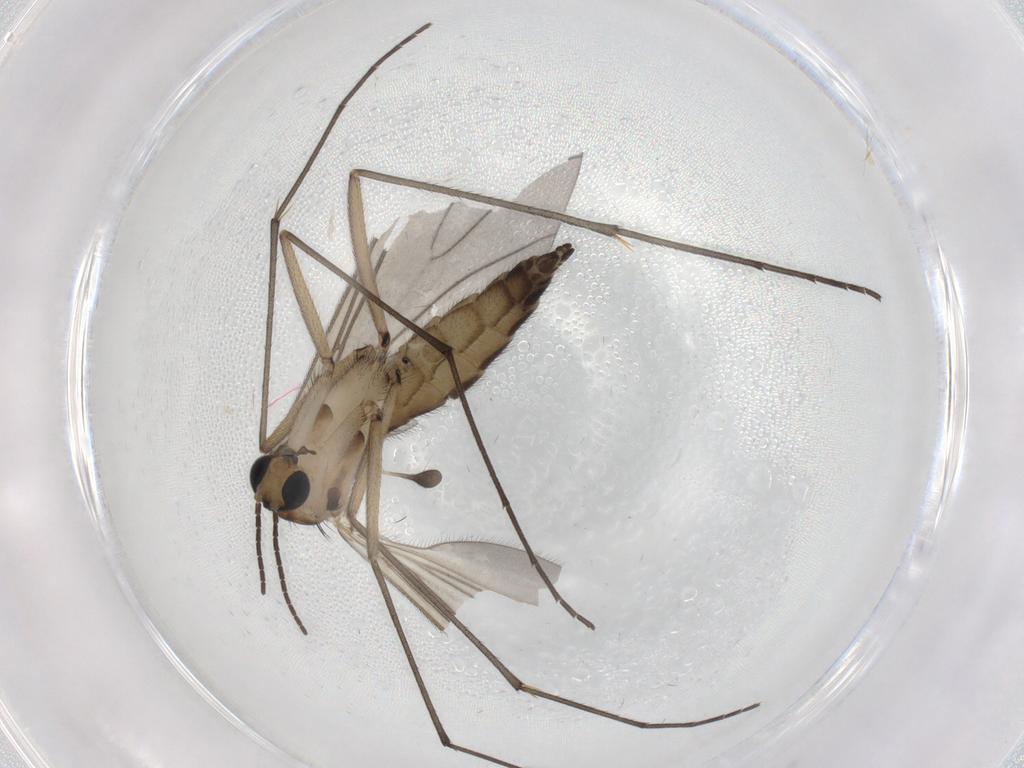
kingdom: Animalia
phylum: Arthropoda
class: Insecta
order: Diptera
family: Sciaridae
